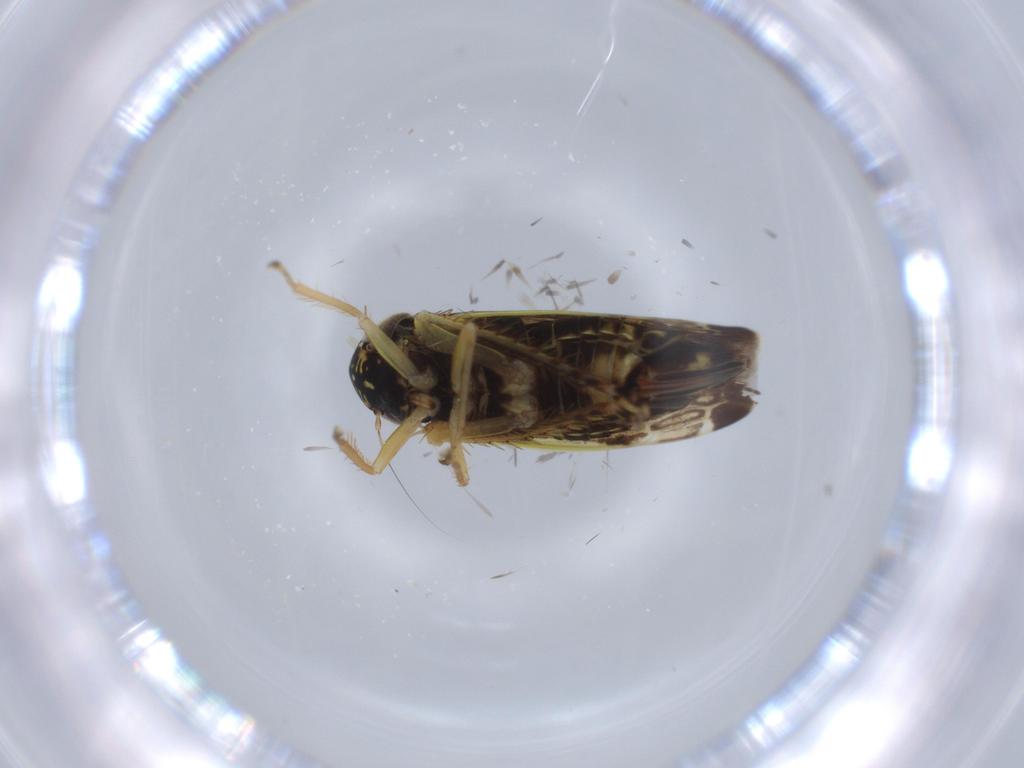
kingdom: Animalia
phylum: Arthropoda
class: Insecta
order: Hemiptera
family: Cicadellidae
